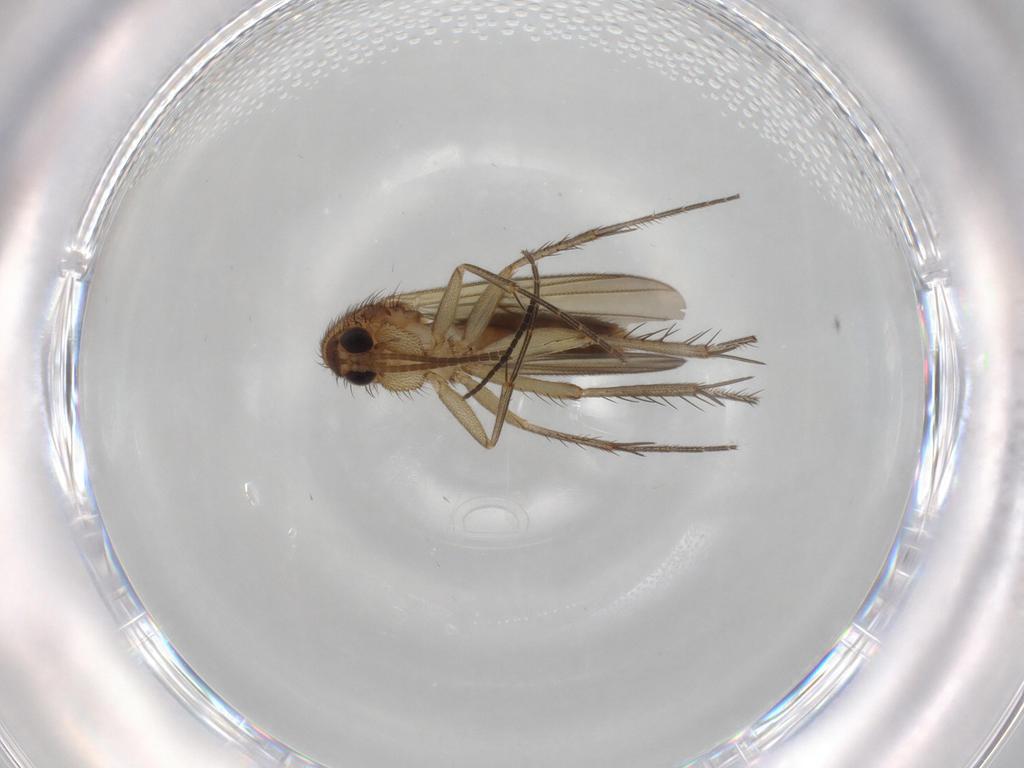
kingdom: Animalia
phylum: Arthropoda
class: Insecta
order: Diptera
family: Sciaridae
